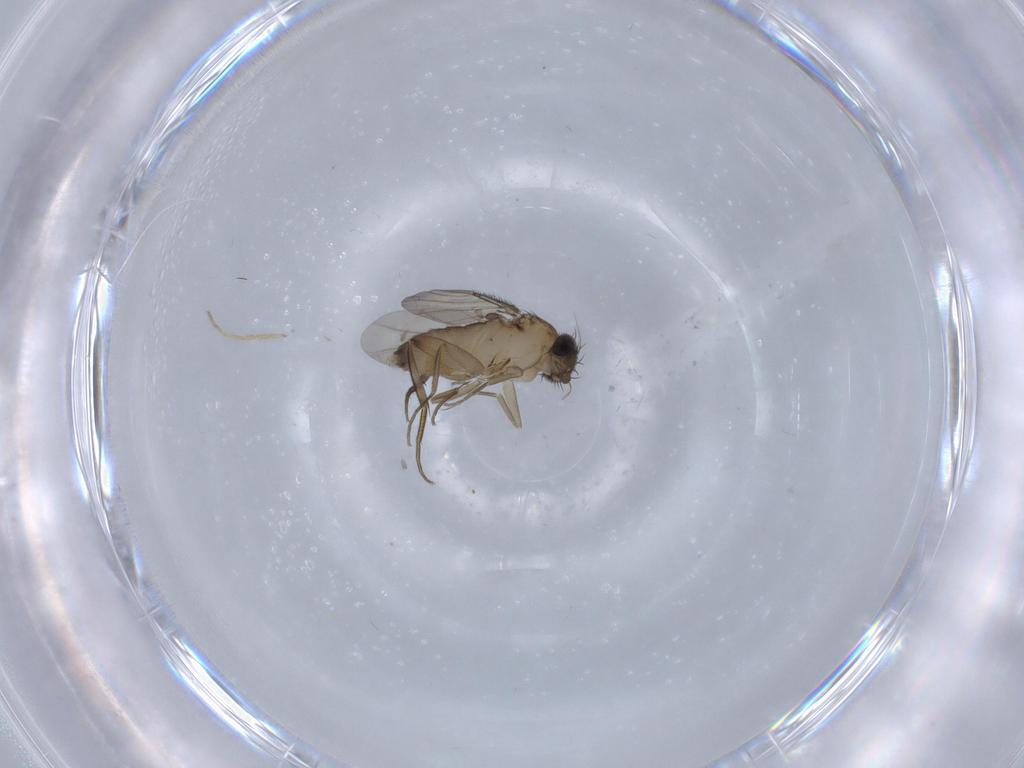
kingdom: Animalia
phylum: Arthropoda
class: Insecta
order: Diptera
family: Phoridae
